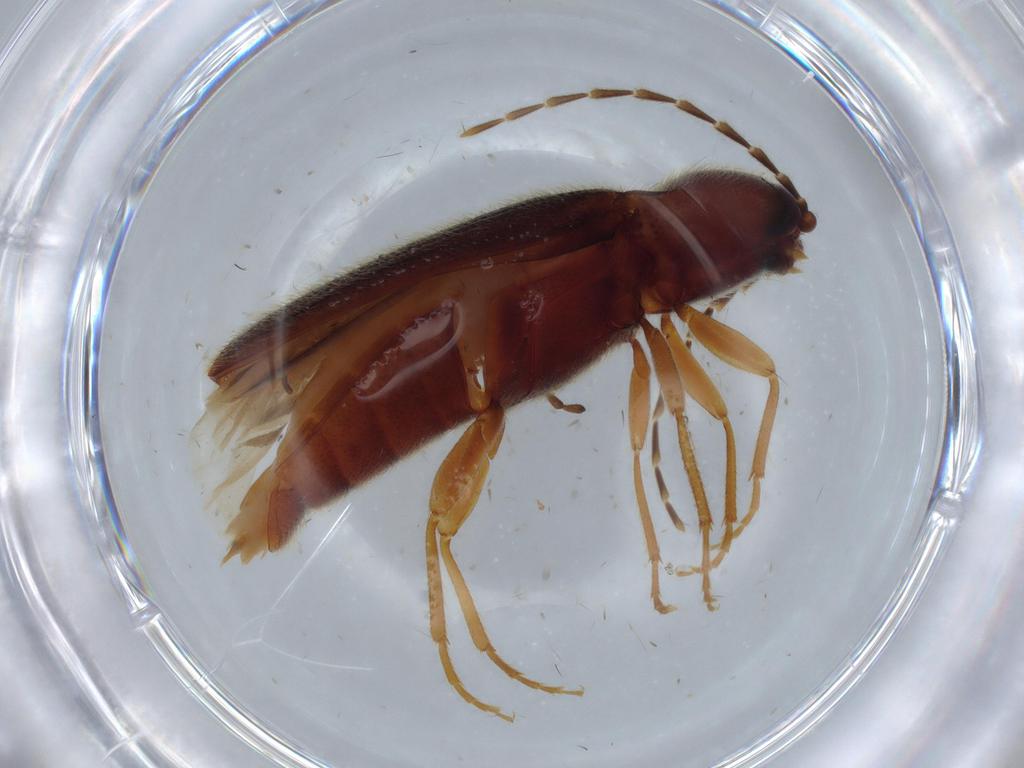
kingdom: Animalia
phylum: Arthropoda
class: Insecta
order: Coleoptera
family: Elateridae
